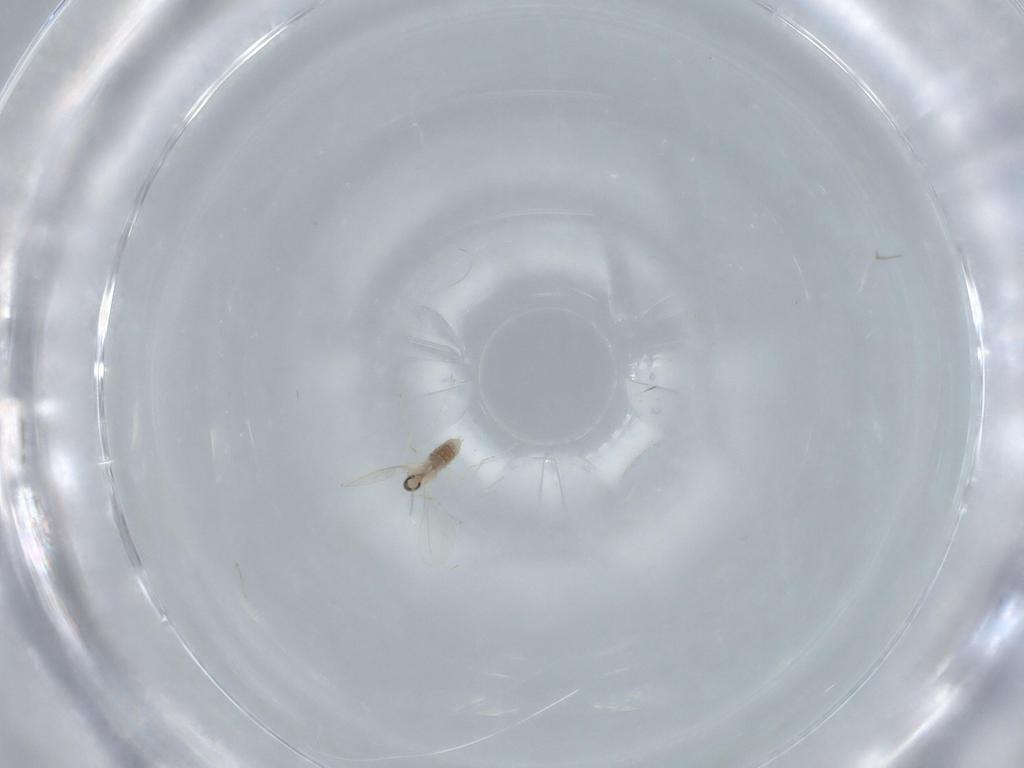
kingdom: Animalia
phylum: Arthropoda
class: Insecta
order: Diptera
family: Cecidomyiidae
